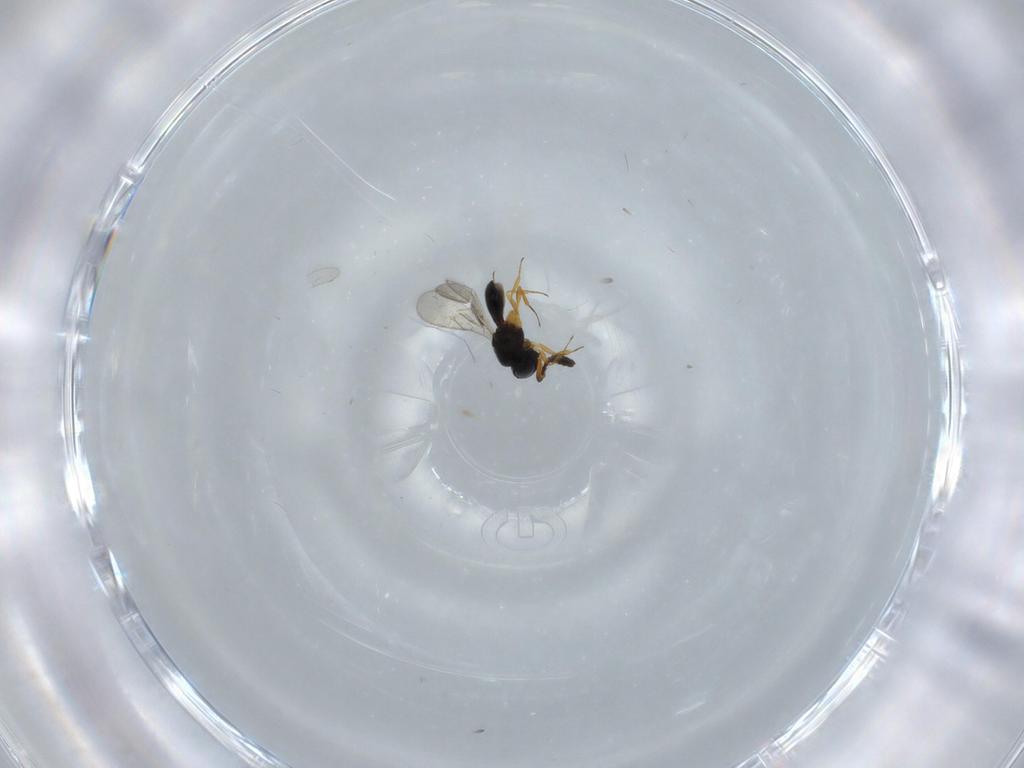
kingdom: Animalia
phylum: Arthropoda
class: Insecta
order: Hymenoptera
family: Scelionidae
